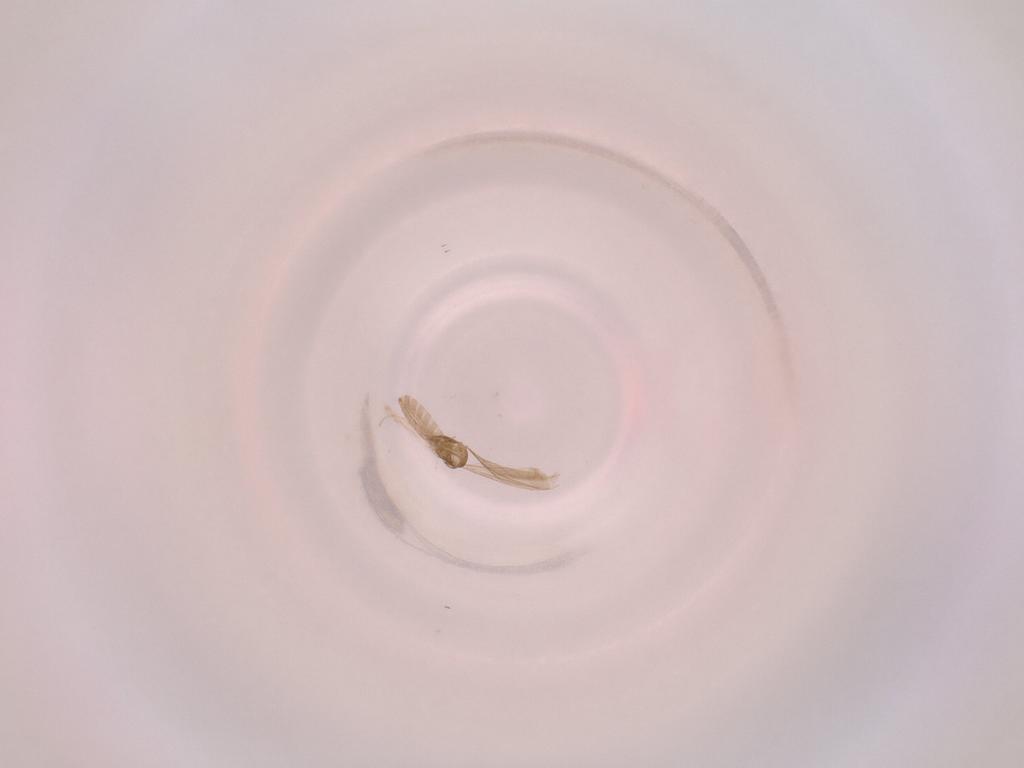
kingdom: Animalia
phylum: Arthropoda
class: Insecta
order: Diptera
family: Cecidomyiidae
